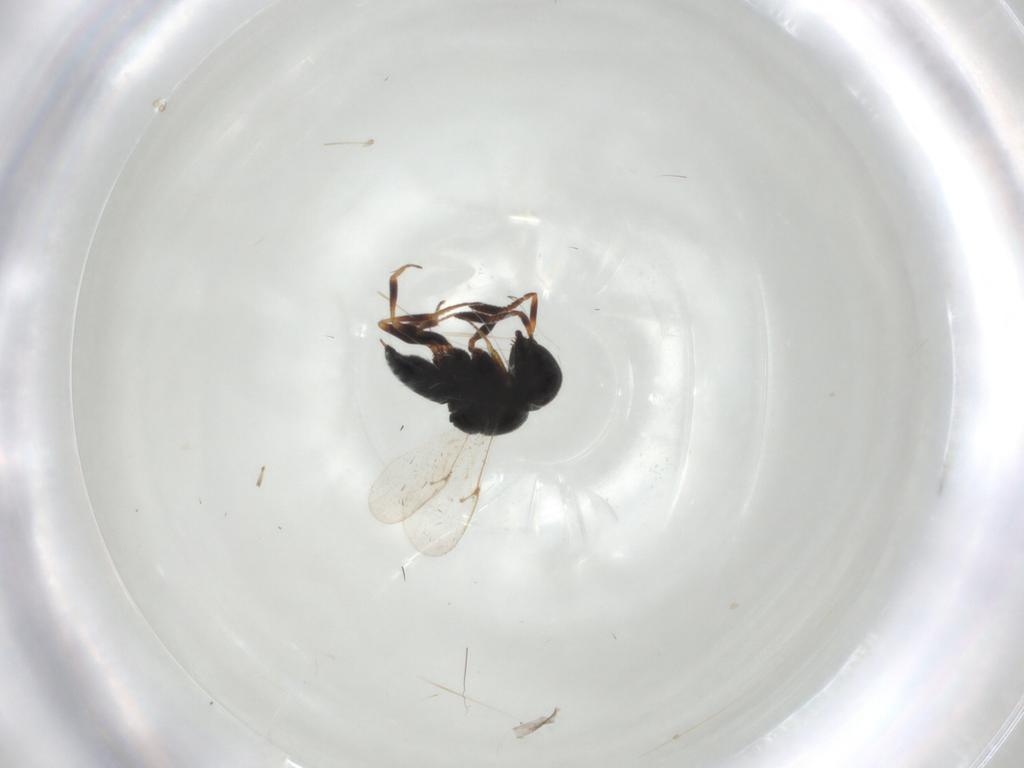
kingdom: Animalia
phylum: Arthropoda
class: Insecta
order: Hymenoptera
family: Scelionidae
